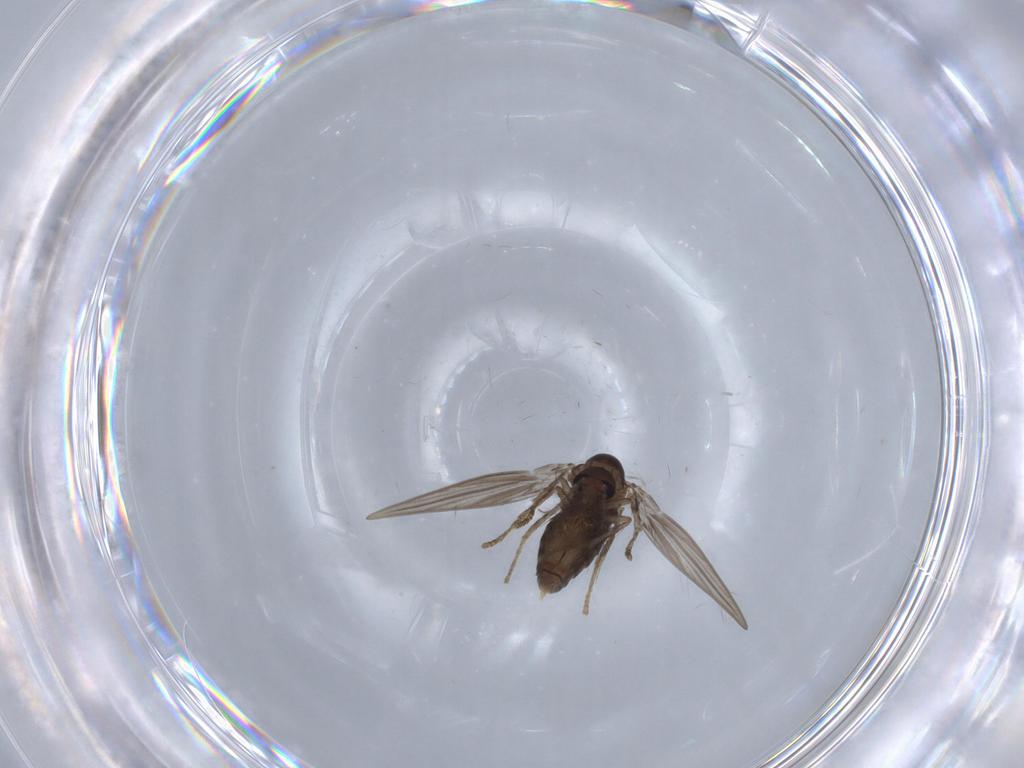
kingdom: Animalia
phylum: Arthropoda
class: Insecta
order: Diptera
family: Psychodidae
